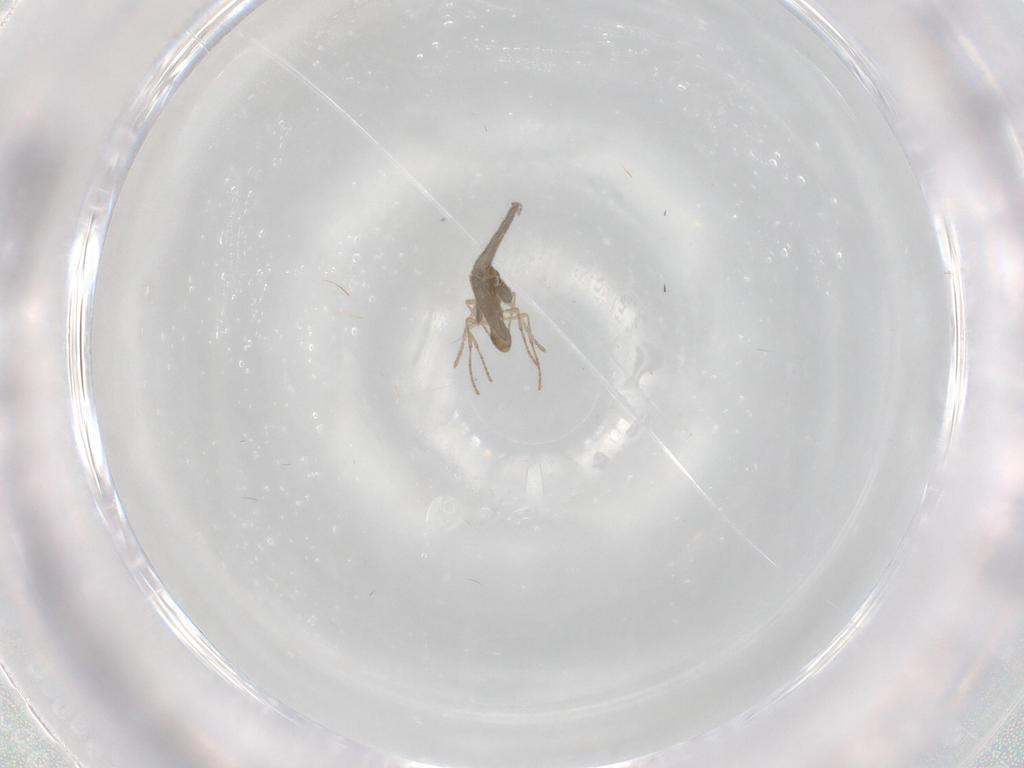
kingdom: Animalia
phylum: Arthropoda
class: Insecta
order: Hymenoptera
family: Formicidae
